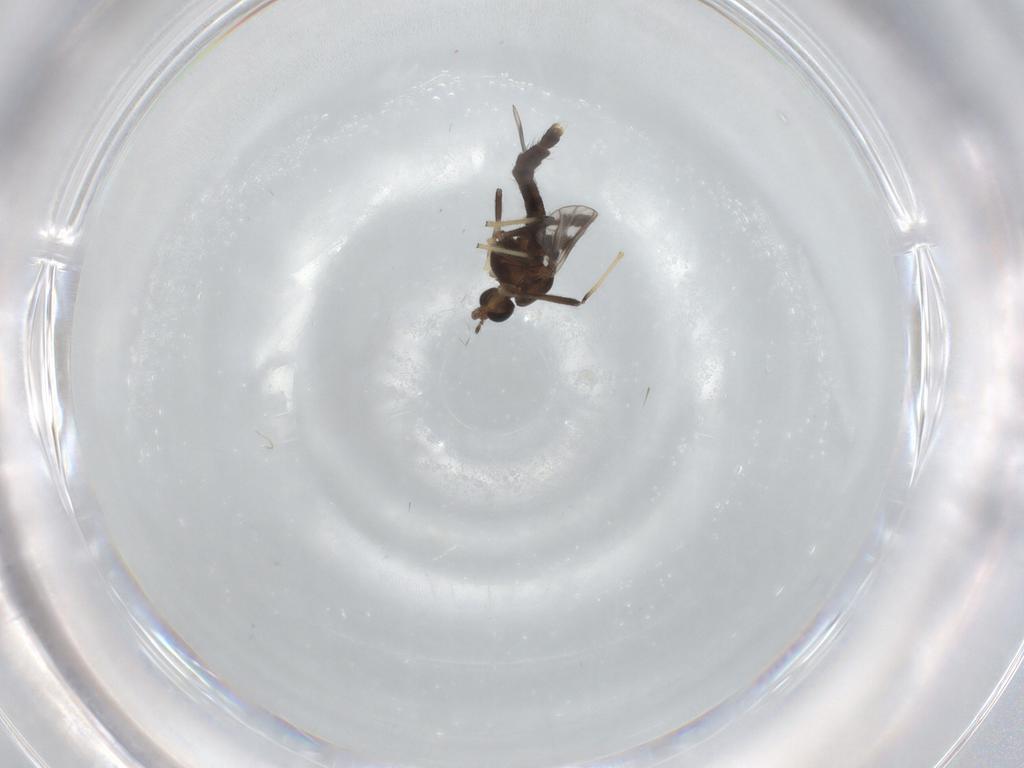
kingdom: Animalia
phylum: Arthropoda
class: Insecta
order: Diptera
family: Chironomidae
